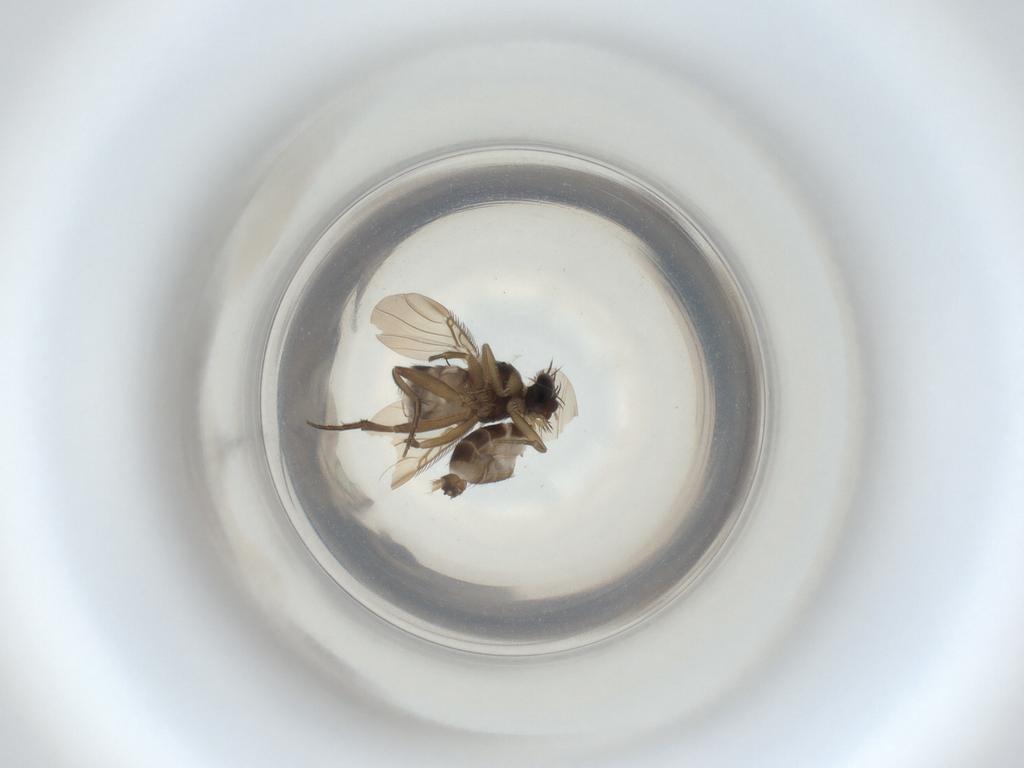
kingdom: Animalia
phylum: Arthropoda
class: Insecta
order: Diptera
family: Phoridae
